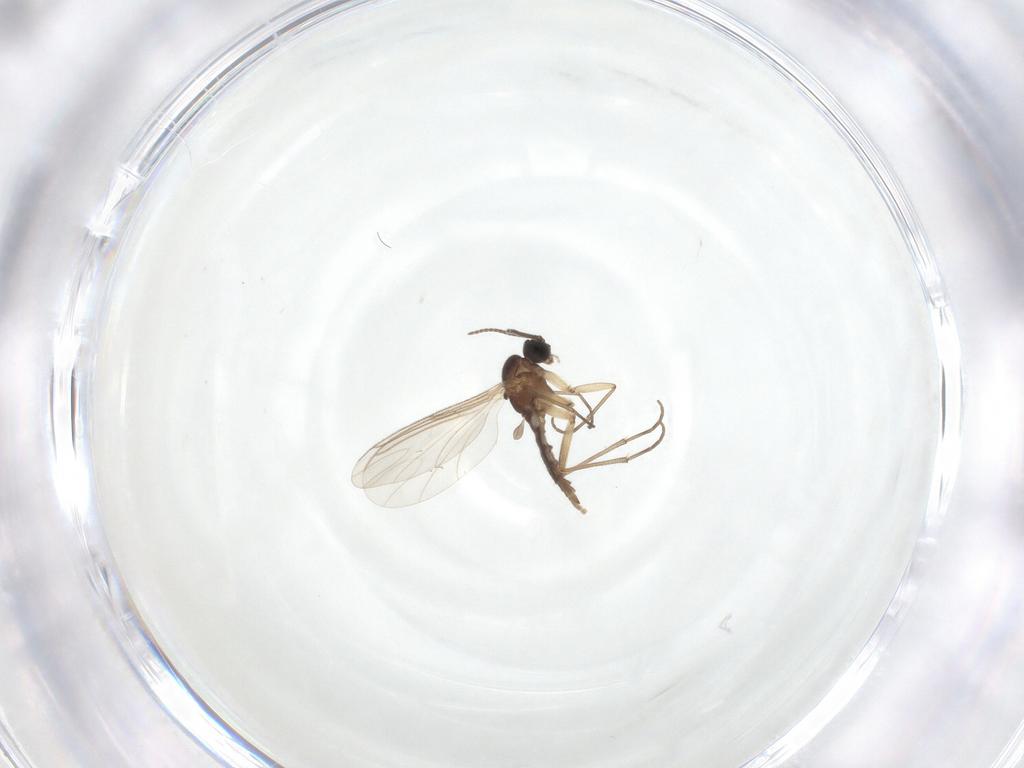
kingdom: Animalia
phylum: Arthropoda
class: Insecta
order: Diptera
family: Sciaridae
